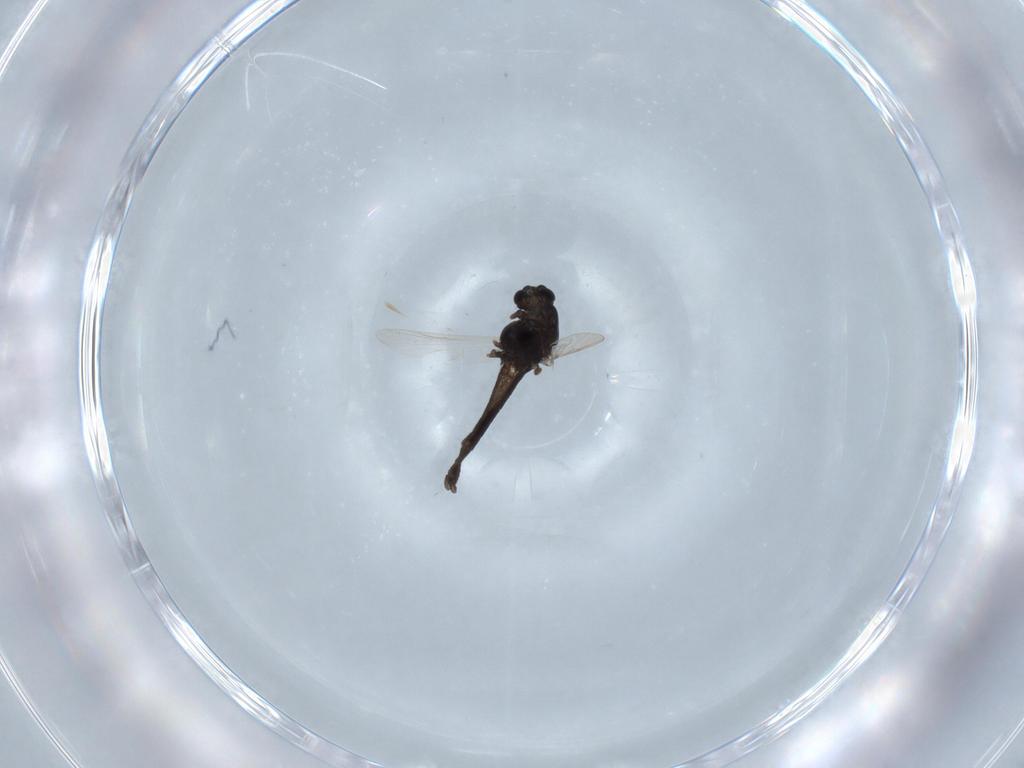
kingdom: Animalia
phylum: Arthropoda
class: Insecta
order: Diptera
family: Chironomidae
